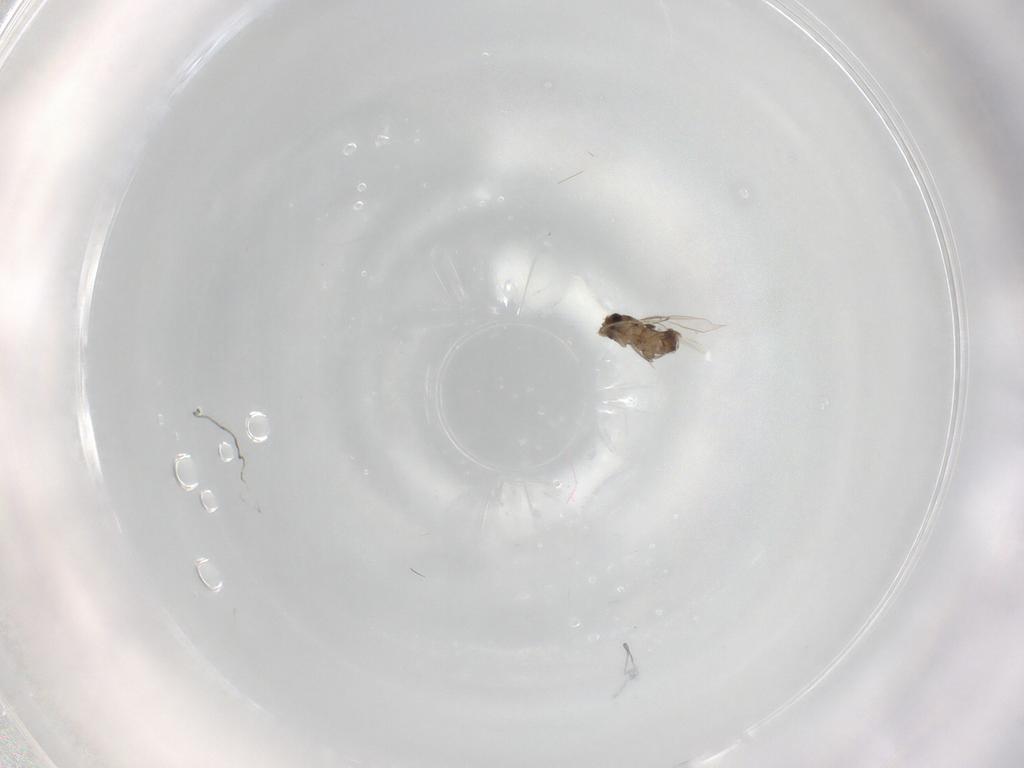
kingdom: Animalia
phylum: Arthropoda
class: Insecta
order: Diptera
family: Phoridae
